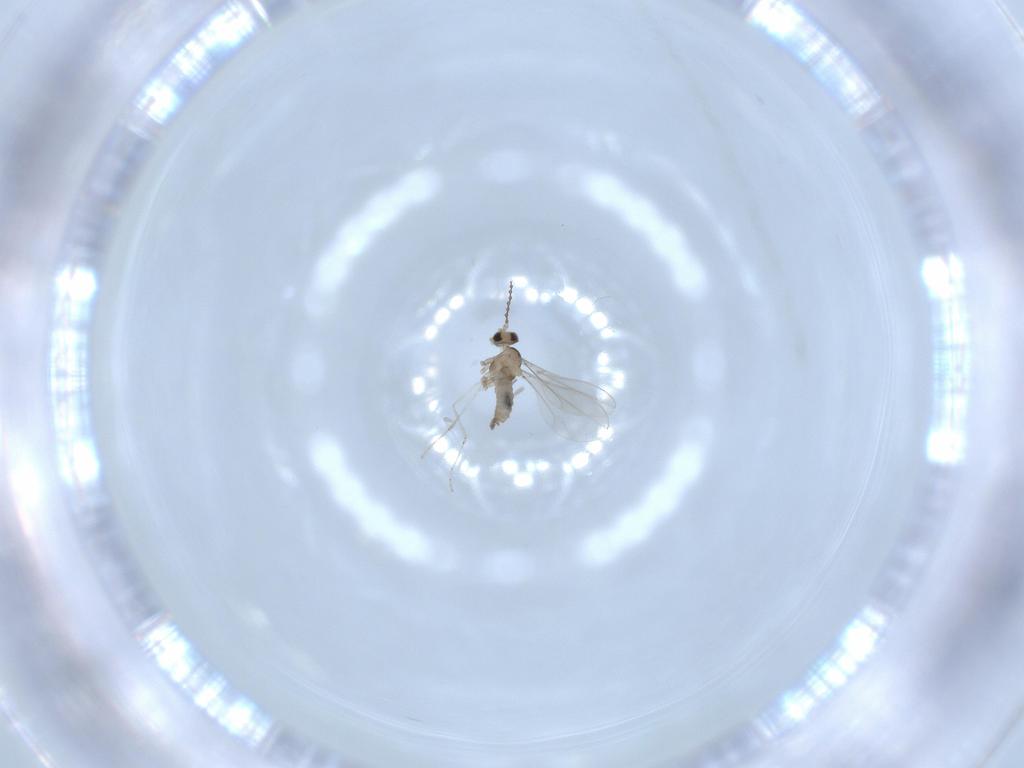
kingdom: Animalia
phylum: Arthropoda
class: Insecta
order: Diptera
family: Cecidomyiidae
